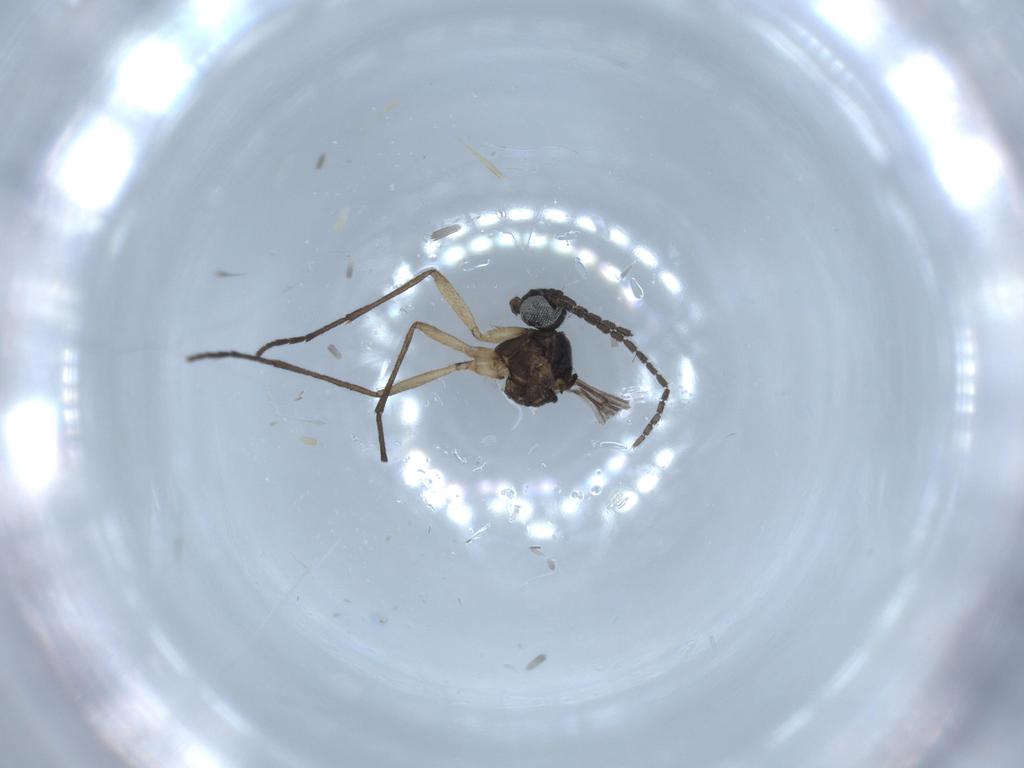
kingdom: Animalia
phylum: Arthropoda
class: Insecta
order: Diptera
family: Sciaridae
